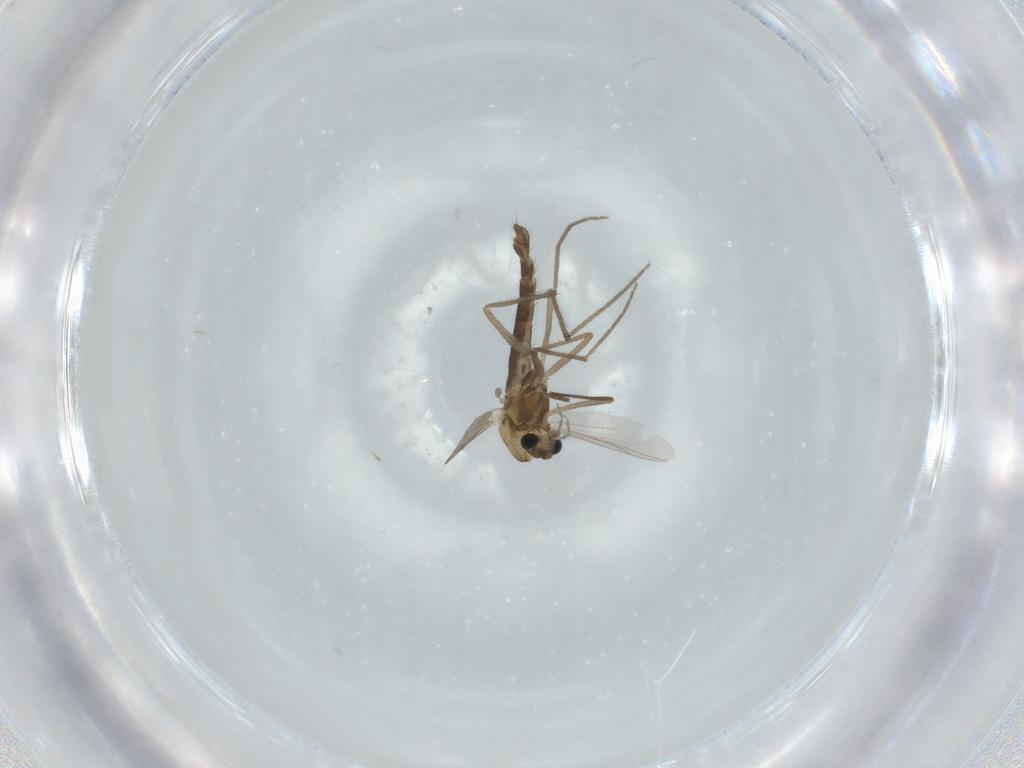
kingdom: Animalia
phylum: Arthropoda
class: Insecta
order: Diptera
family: Chironomidae
